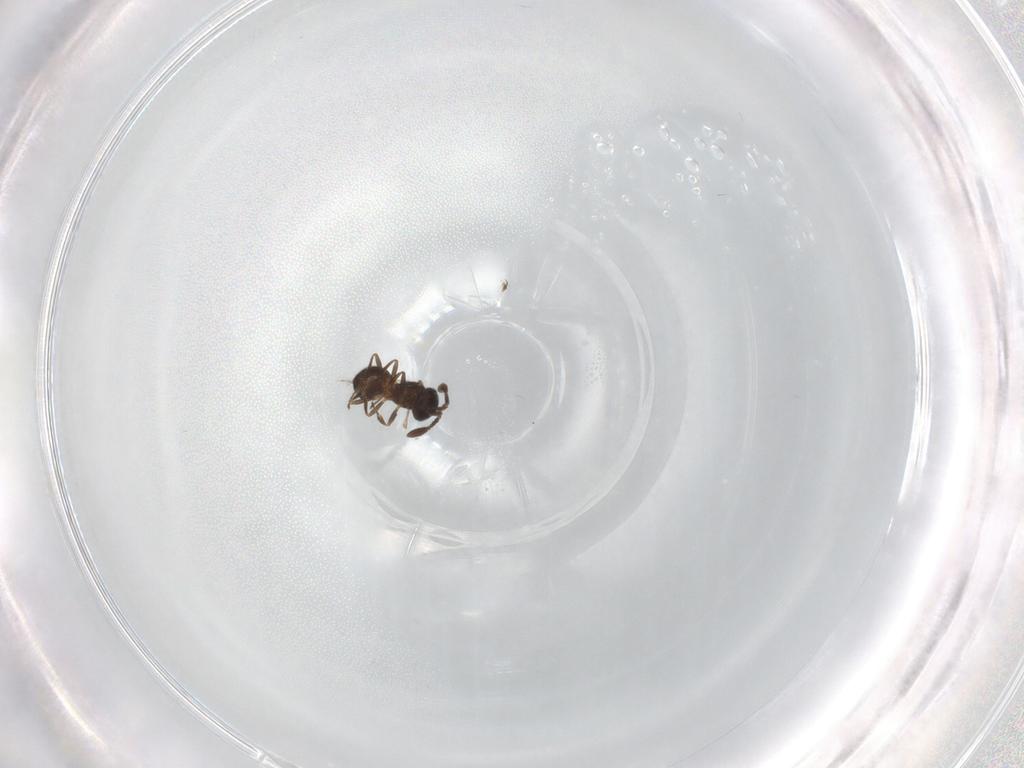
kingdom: Animalia
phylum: Arthropoda
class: Insecta
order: Hymenoptera
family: Scelionidae
